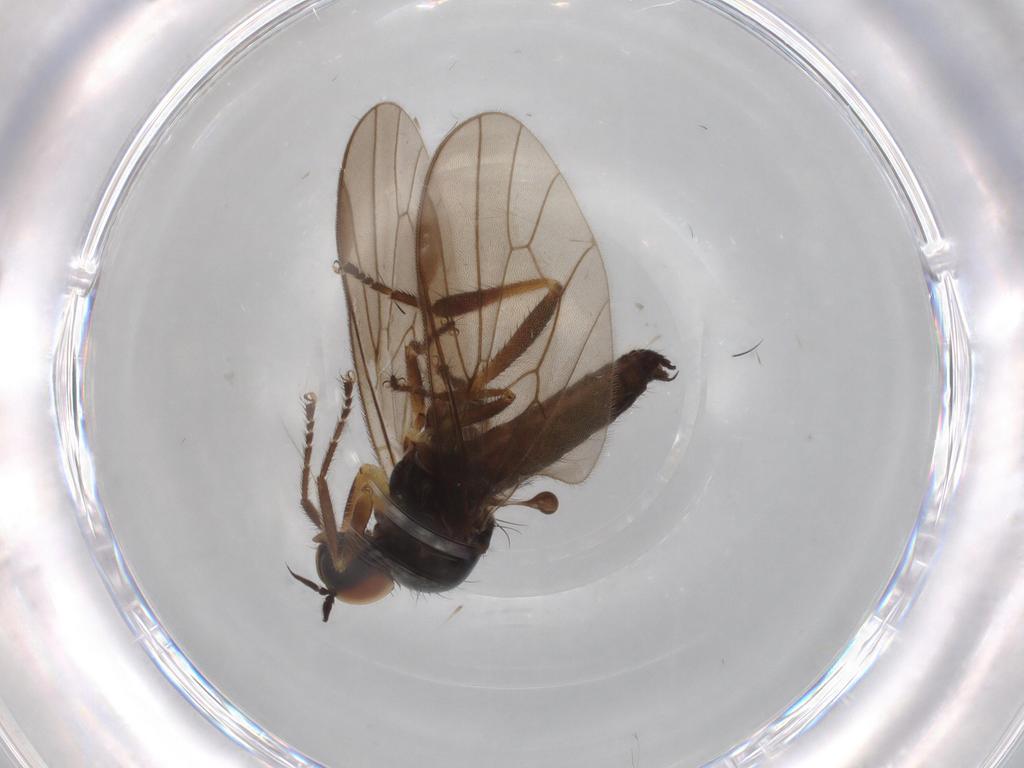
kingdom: Animalia
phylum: Arthropoda
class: Insecta
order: Diptera
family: Hybotidae
